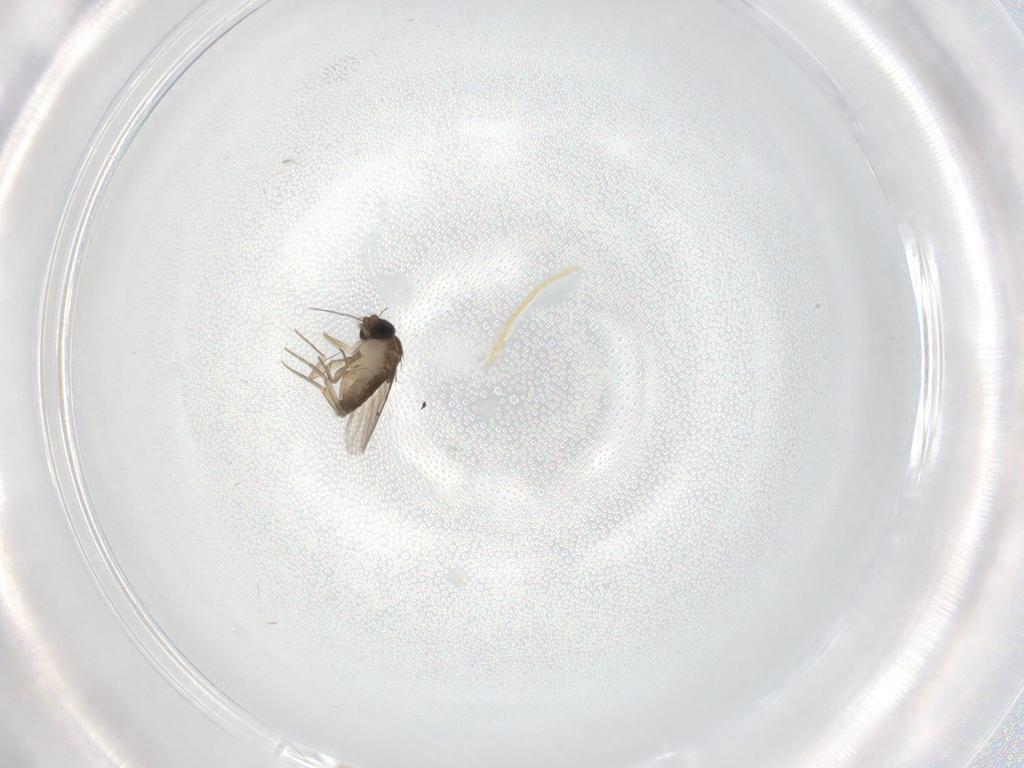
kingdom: Animalia
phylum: Arthropoda
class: Insecta
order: Diptera
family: Phoridae
